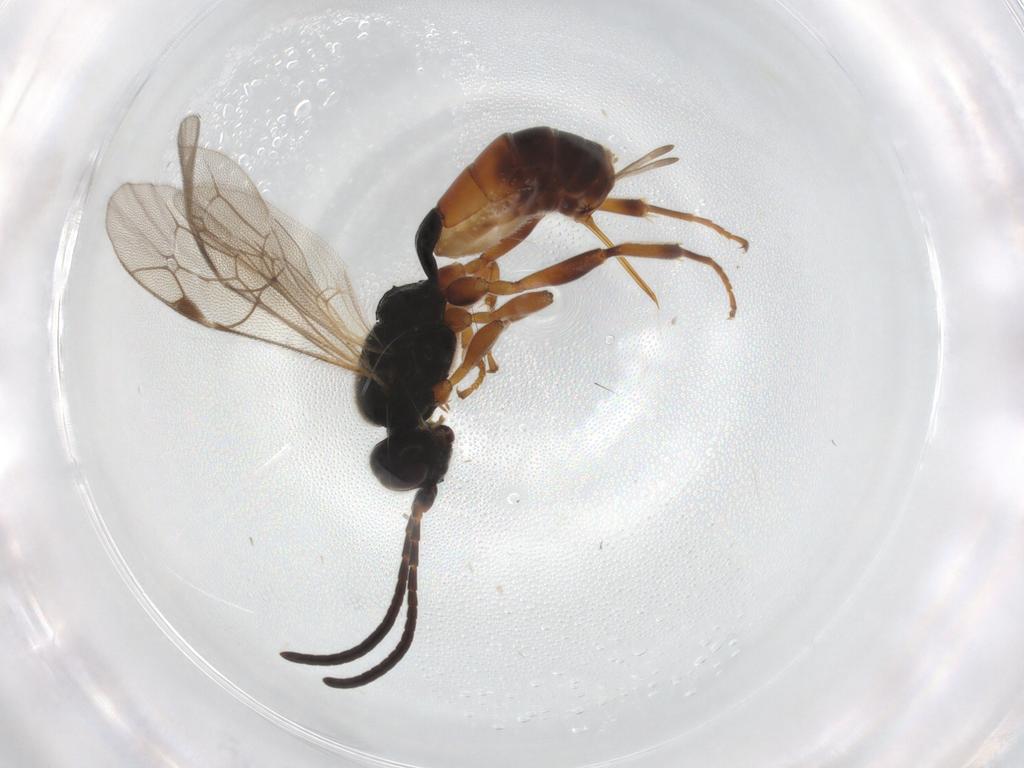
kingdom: Animalia
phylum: Arthropoda
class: Insecta
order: Hymenoptera
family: Ichneumonidae
